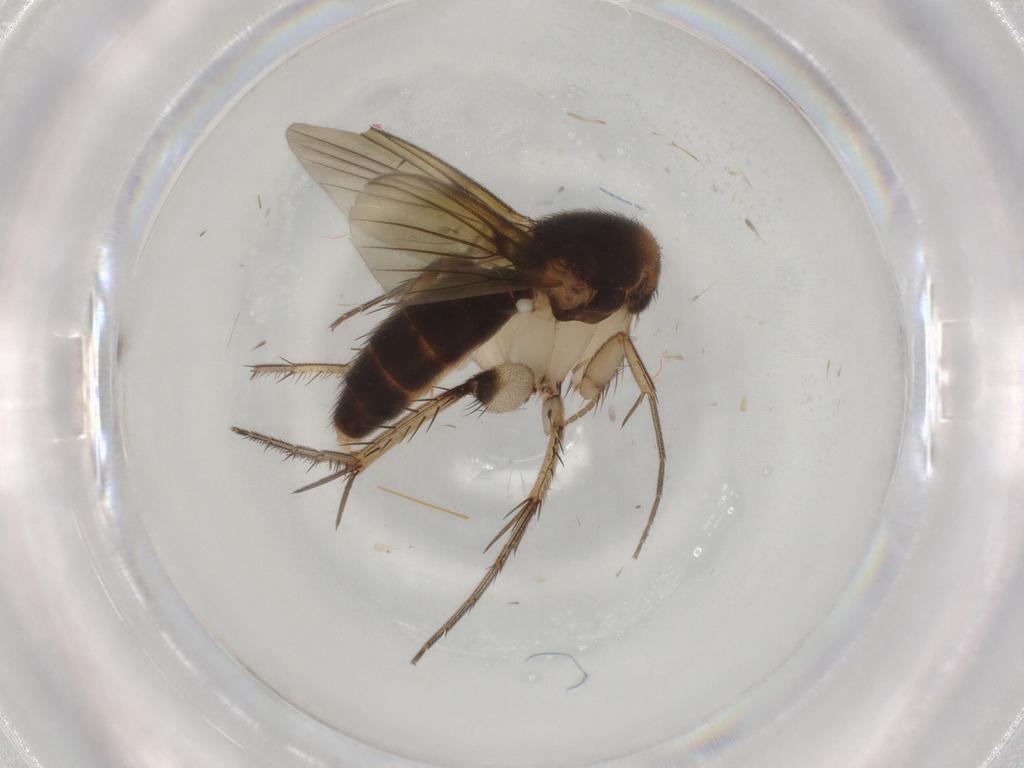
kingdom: Animalia
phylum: Arthropoda
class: Insecta
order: Diptera
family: Mycetophilidae
